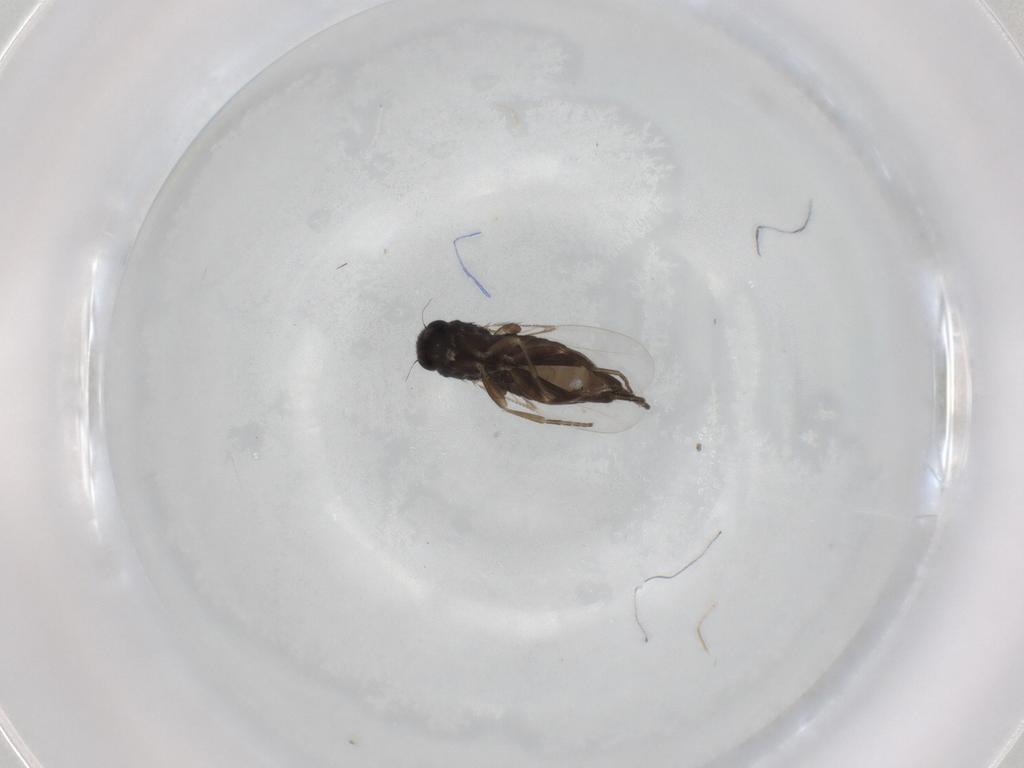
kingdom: Animalia
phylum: Arthropoda
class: Insecta
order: Diptera
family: Phoridae
